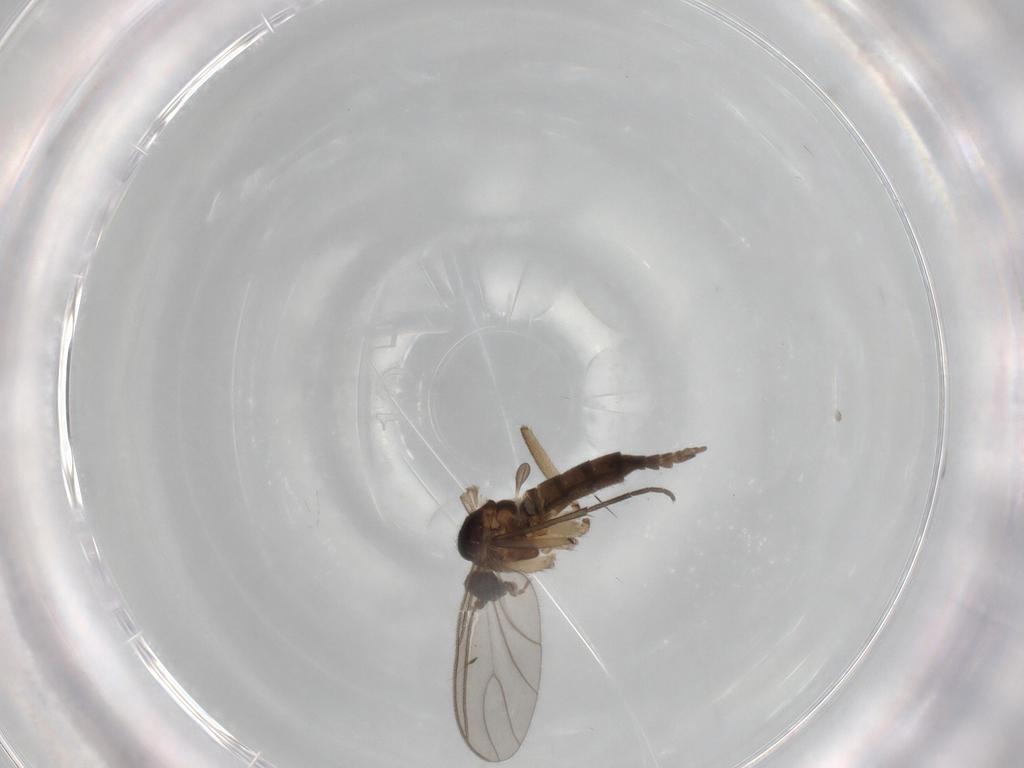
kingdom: Animalia
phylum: Arthropoda
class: Insecta
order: Diptera
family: Sciaridae
